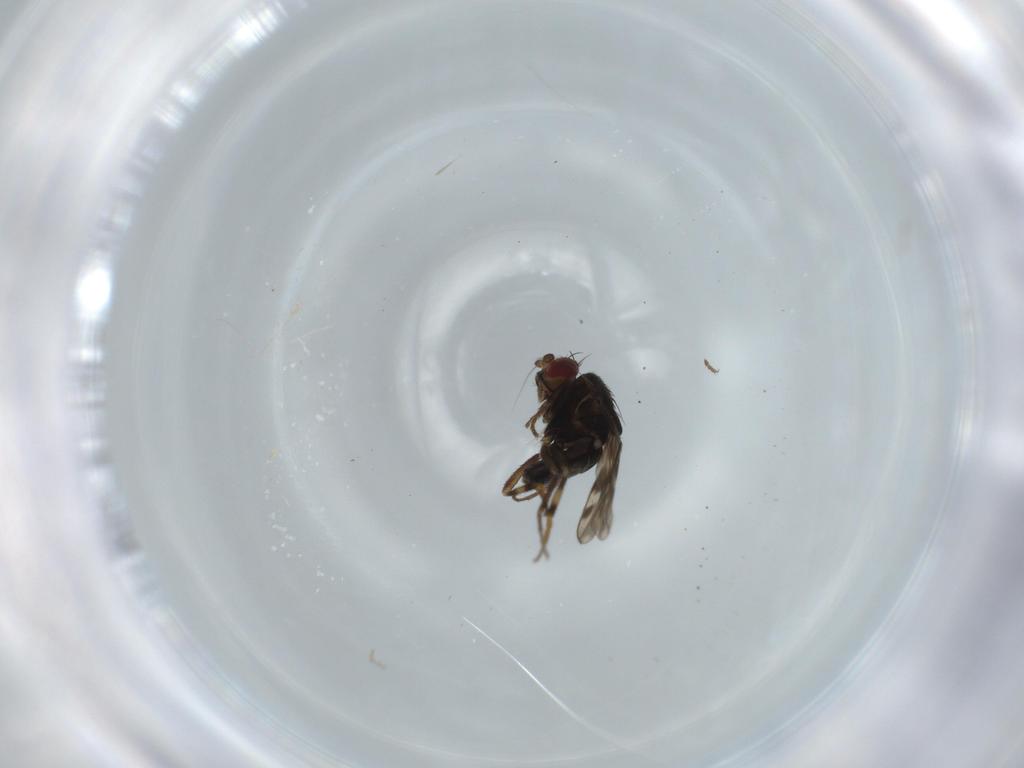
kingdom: Animalia
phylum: Arthropoda
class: Insecta
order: Diptera
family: Sphaeroceridae
